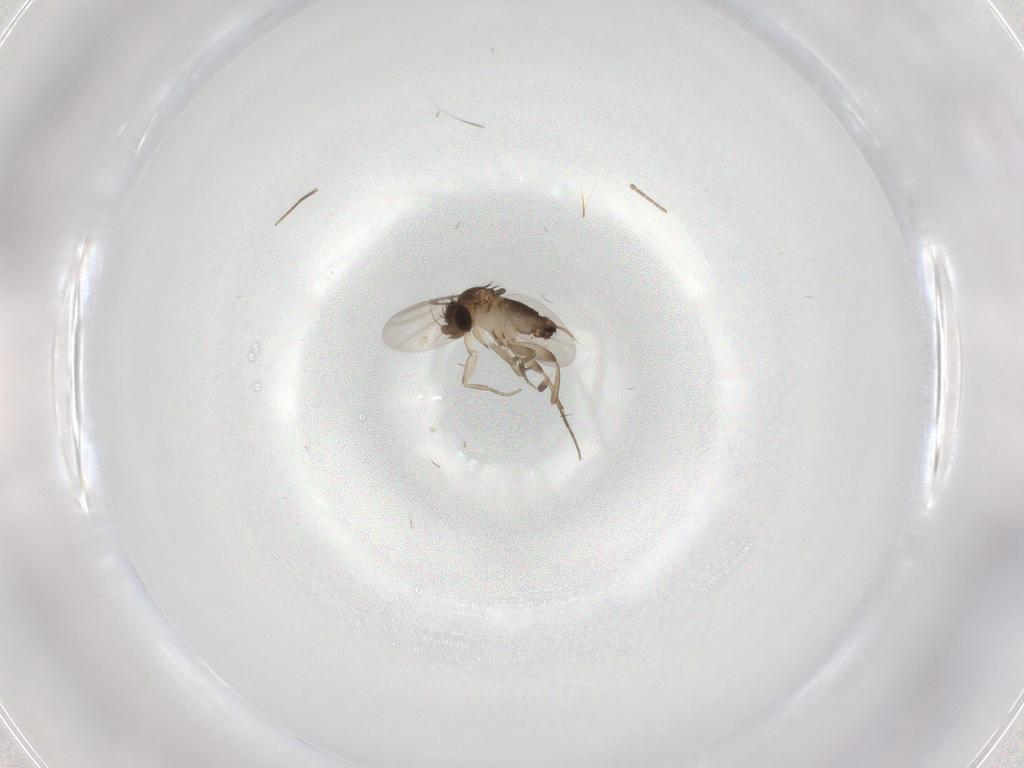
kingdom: Animalia
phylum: Arthropoda
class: Insecta
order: Diptera
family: Phoridae
